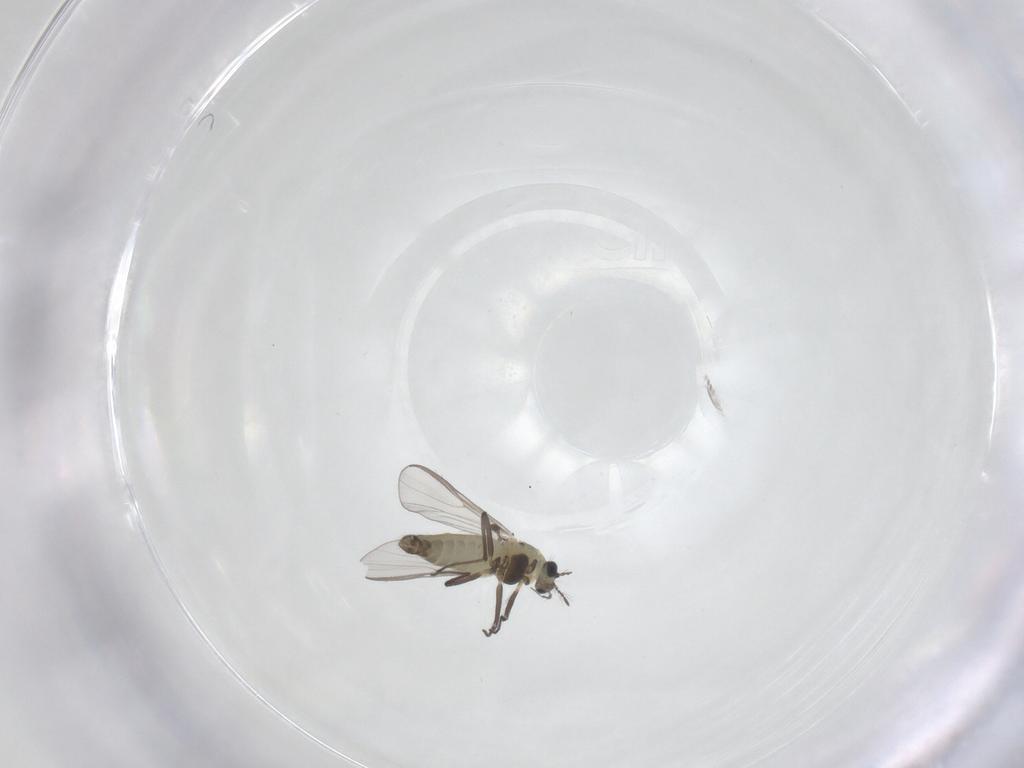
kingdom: Animalia
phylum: Arthropoda
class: Insecta
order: Diptera
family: Chironomidae
